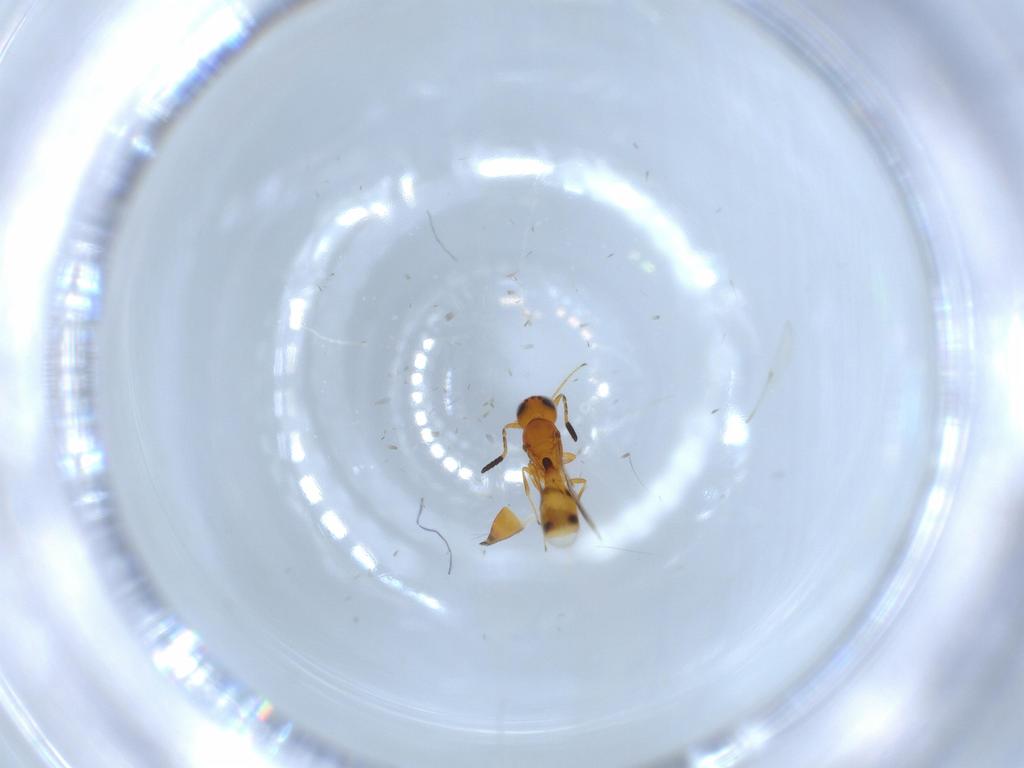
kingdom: Animalia
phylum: Arthropoda
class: Insecta
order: Hymenoptera
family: Scelionidae
